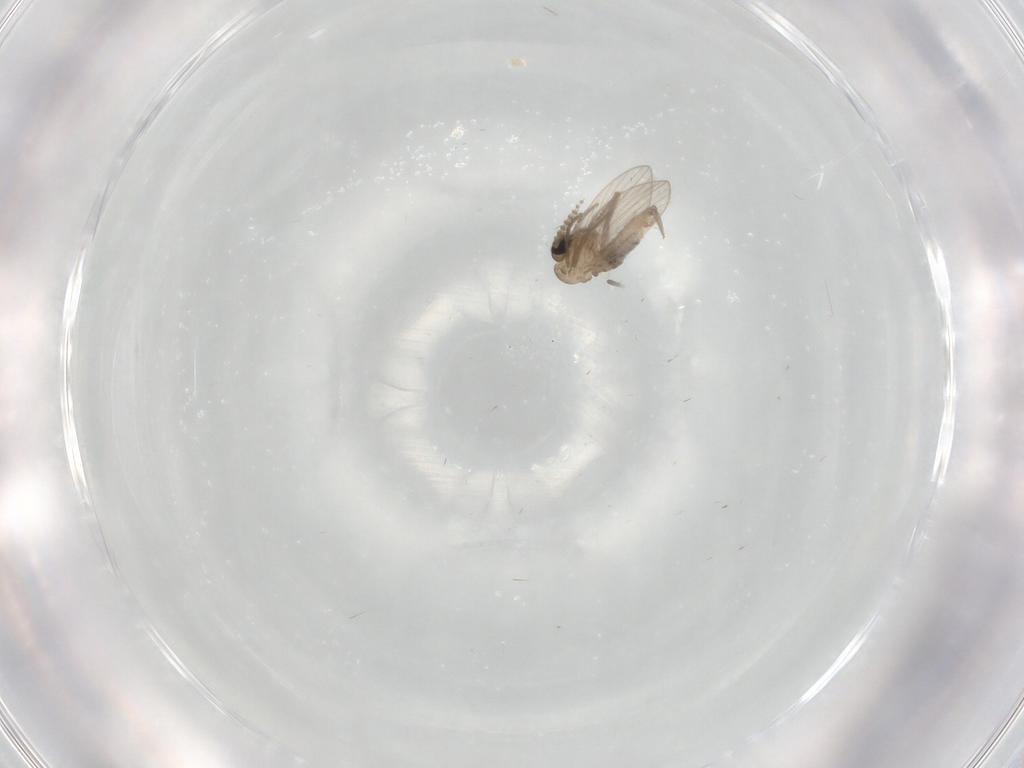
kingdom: Animalia
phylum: Arthropoda
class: Insecta
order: Diptera
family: Psychodidae
